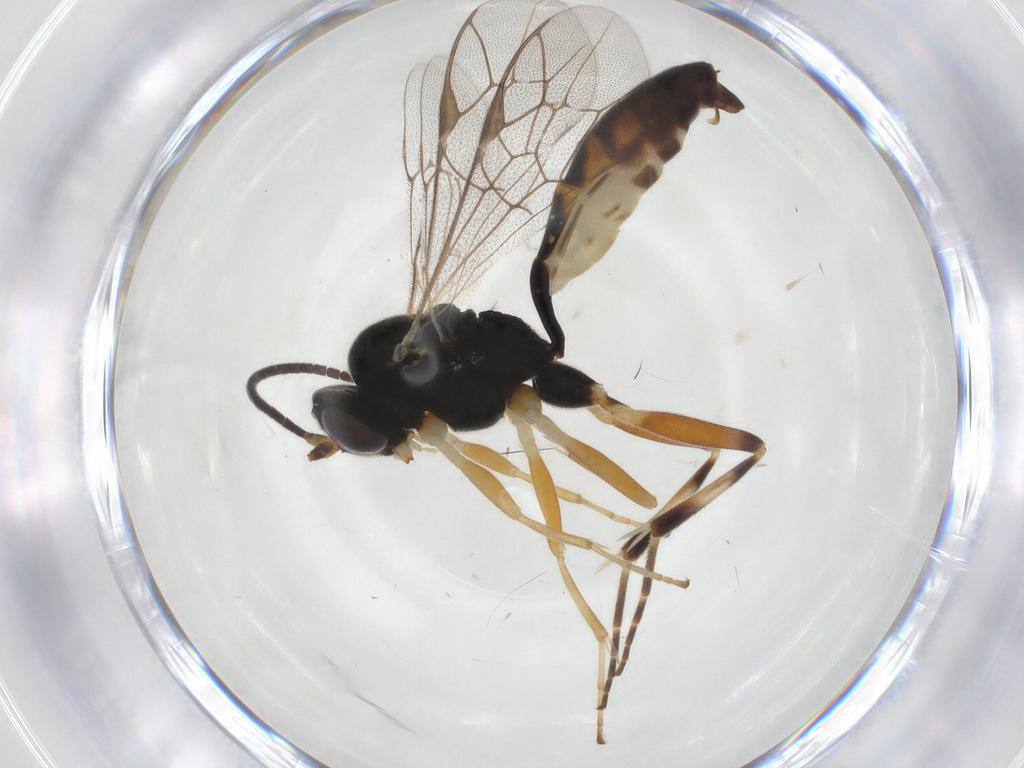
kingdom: Animalia
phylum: Arthropoda
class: Insecta
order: Hymenoptera
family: Ichneumonidae
